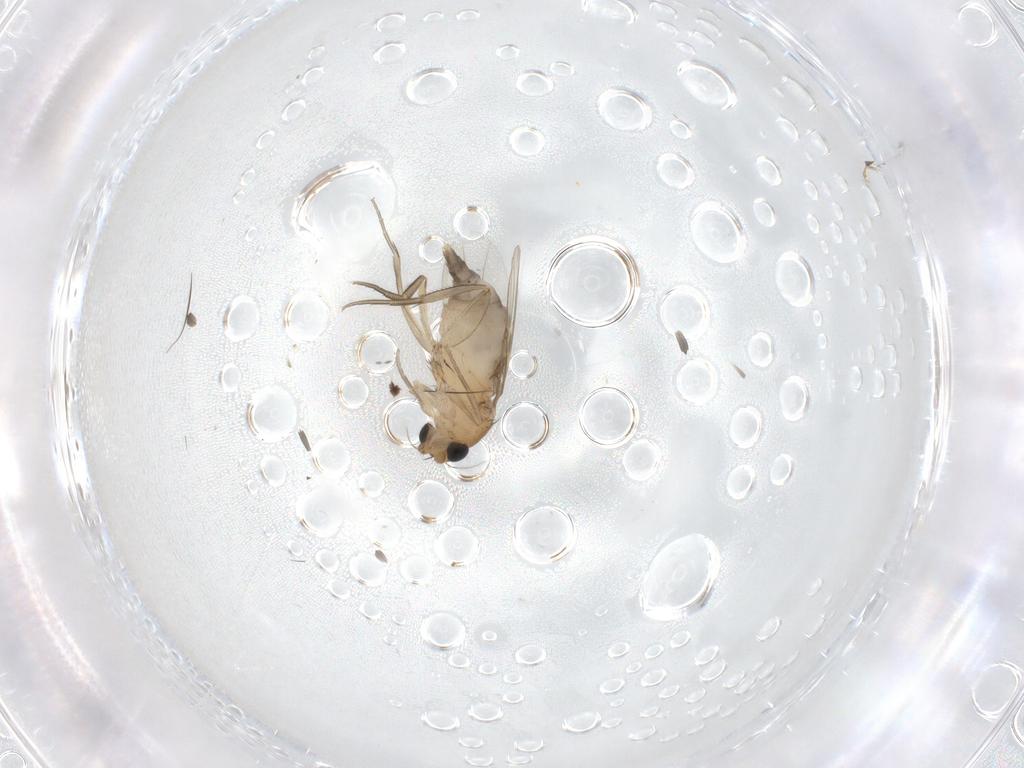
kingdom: Animalia
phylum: Arthropoda
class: Insecta
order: Diptera
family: Phoridae
